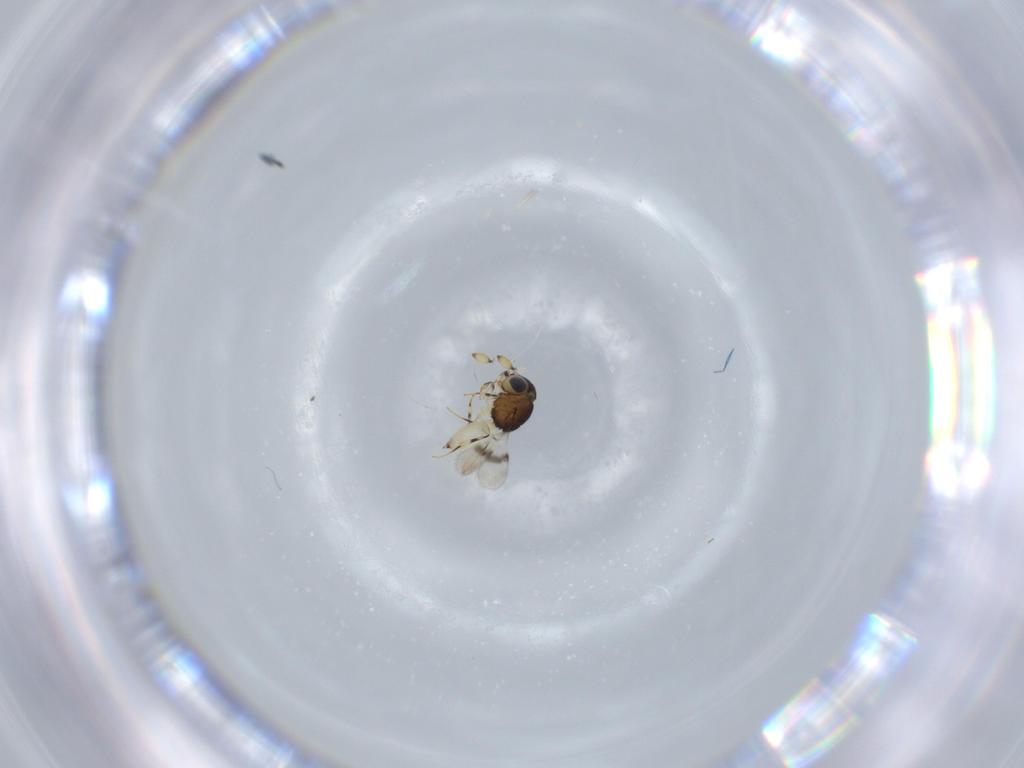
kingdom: Animalia
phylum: Arthropoda
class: Insecta
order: Hymenoptera
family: Scelionidae
